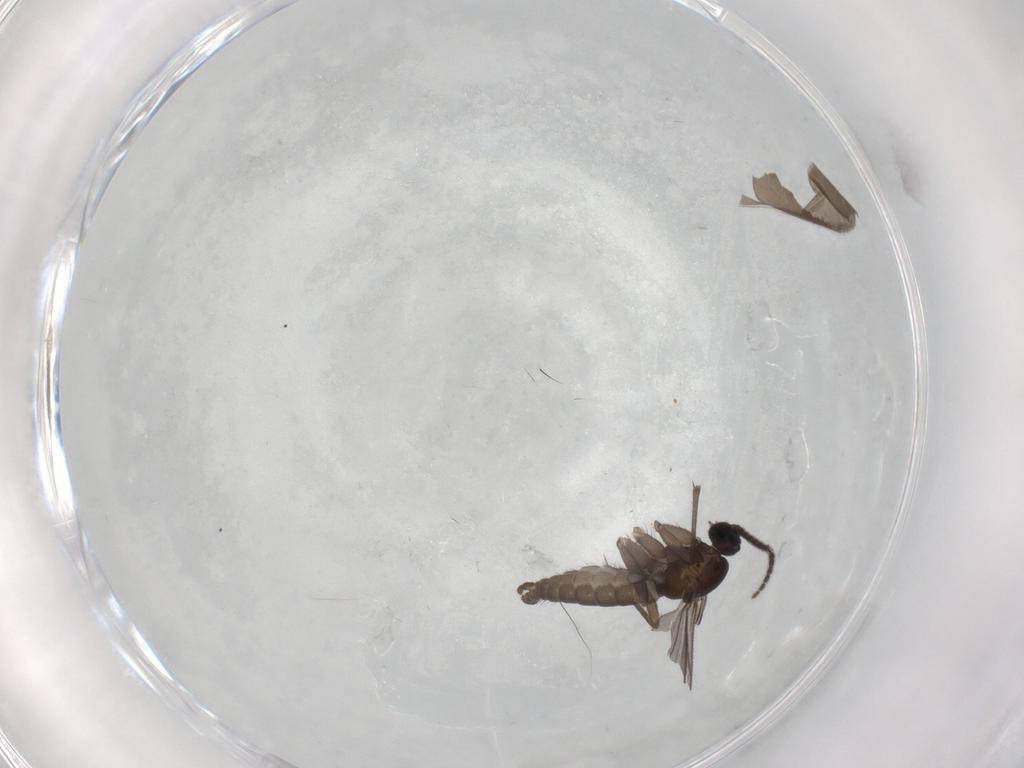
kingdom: Animalia
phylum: Arthropoda
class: Insecta
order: Diptera
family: Sciaridae
